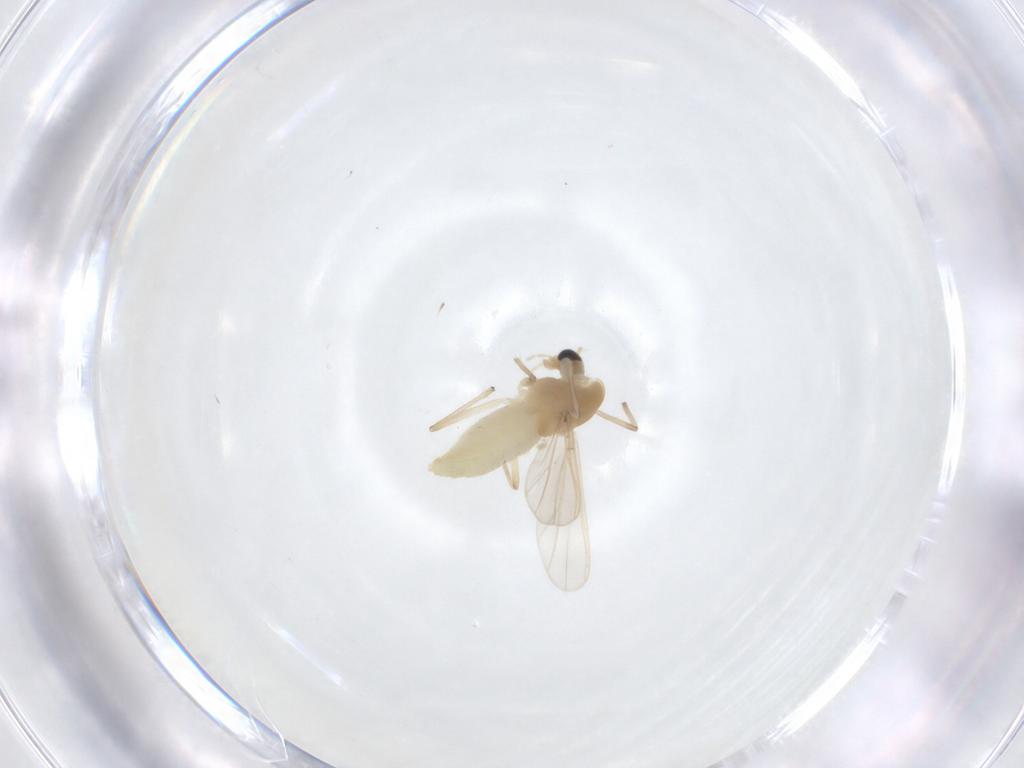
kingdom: Animalia
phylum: Arthropoda
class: Insecta
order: Diptera
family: Chironomidae
